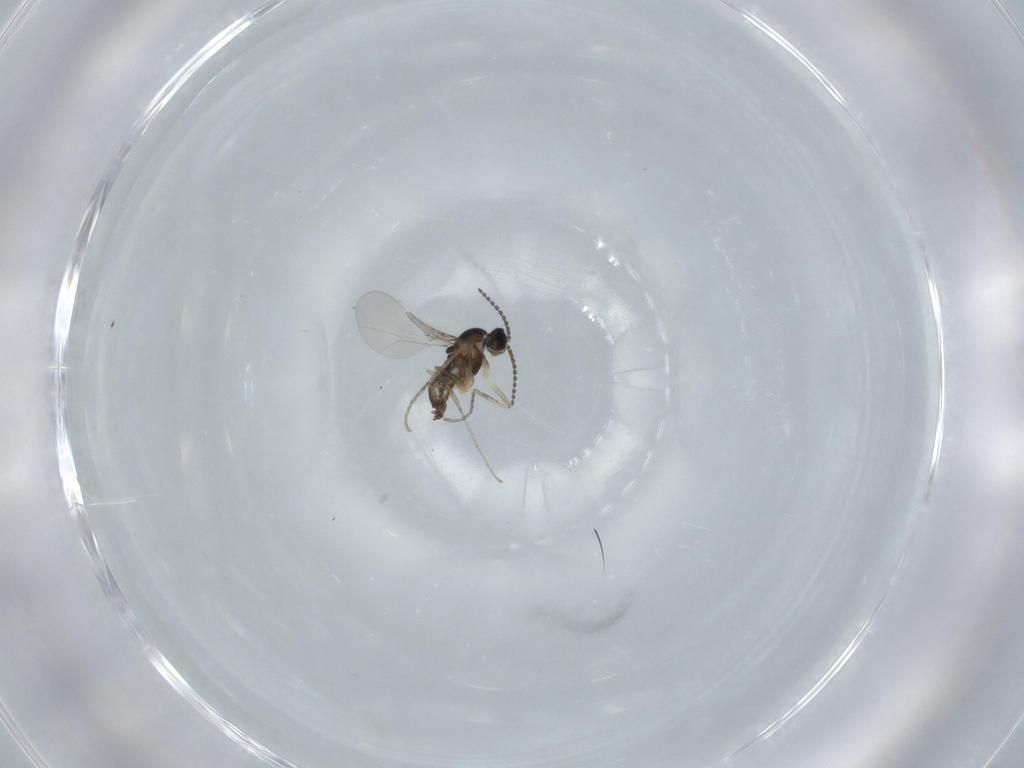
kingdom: Animalia
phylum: Arthropoda
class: Insecta
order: Diptera
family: Cecidomyiidae
